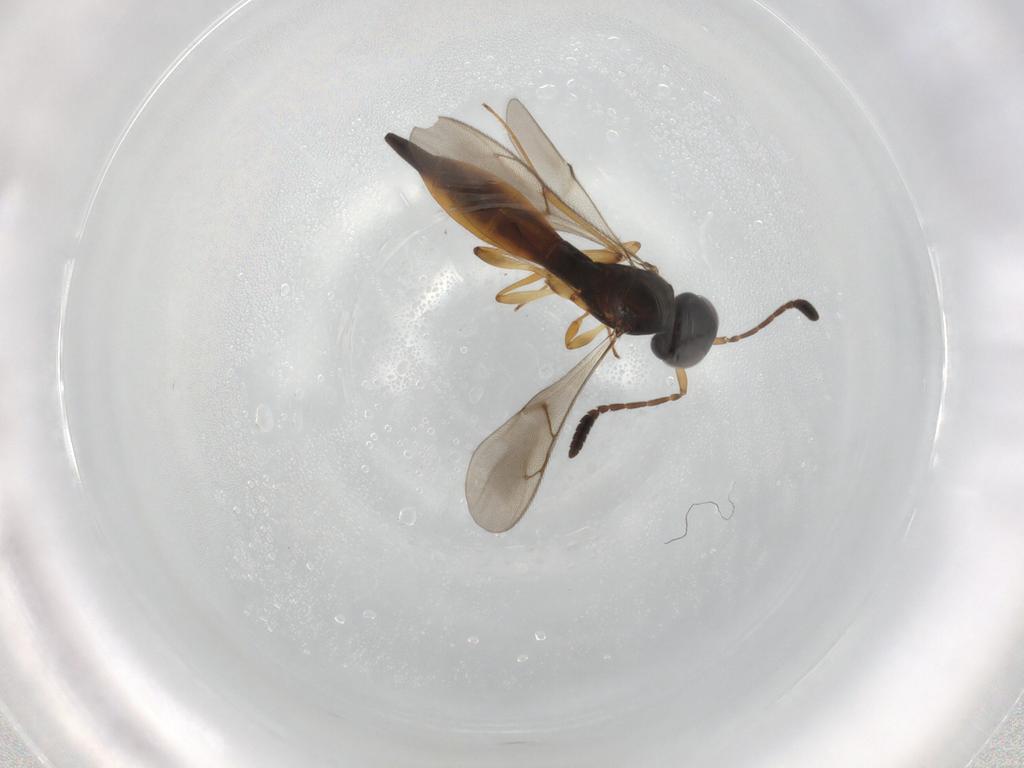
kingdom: Animalia
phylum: Arthropoda
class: Insecta
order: Hymenoptera
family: Scelionidae
